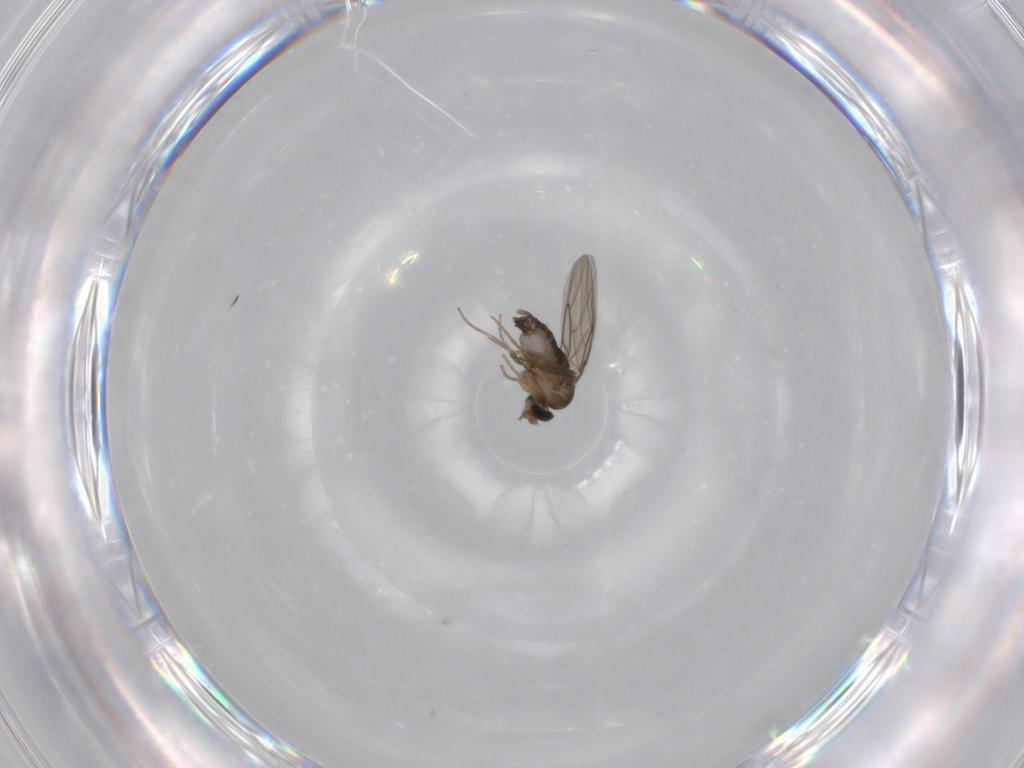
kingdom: Animalia
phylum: Arthropoda
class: Insecta
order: Diptera
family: Phoridae
